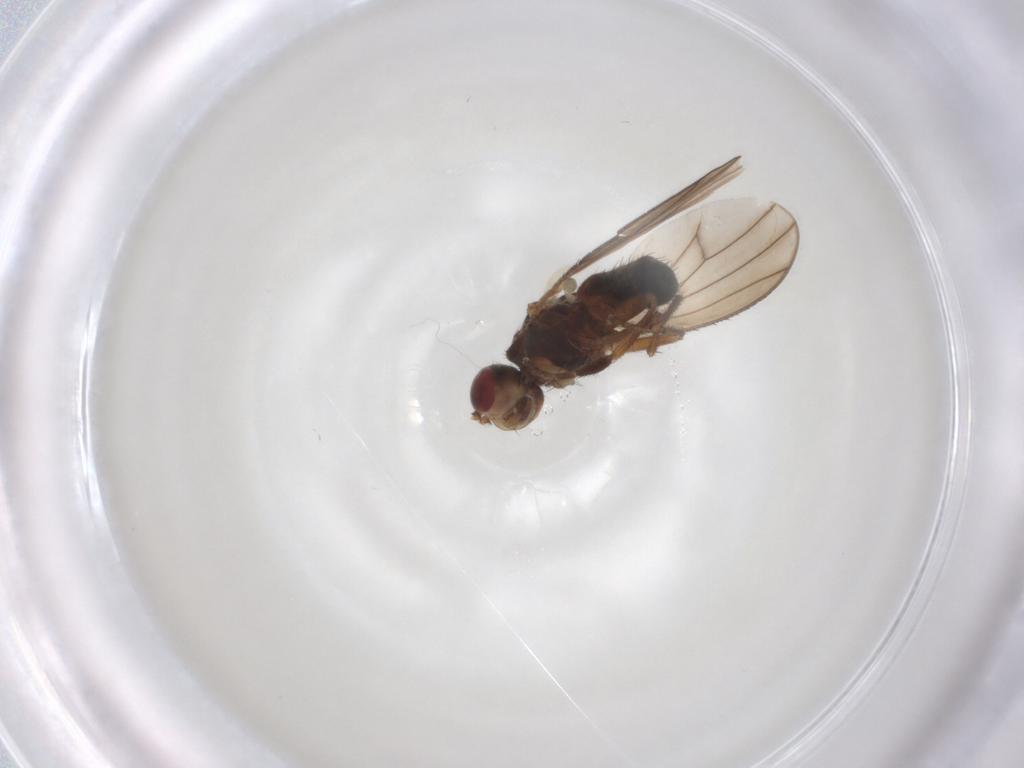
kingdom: Animalia
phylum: Arthropoda
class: Insecta
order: Diptera
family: Heleomyzidae
